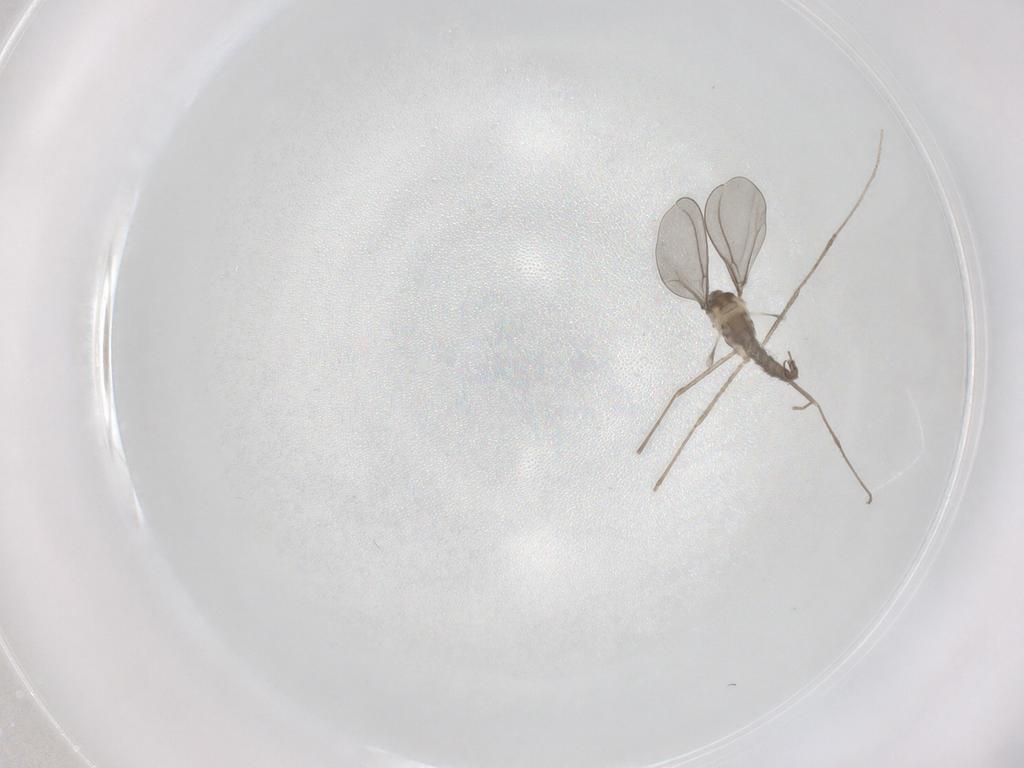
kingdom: Animalia
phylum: Arthropoda
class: Insecta
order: Diptera
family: Cecidomyiidae
